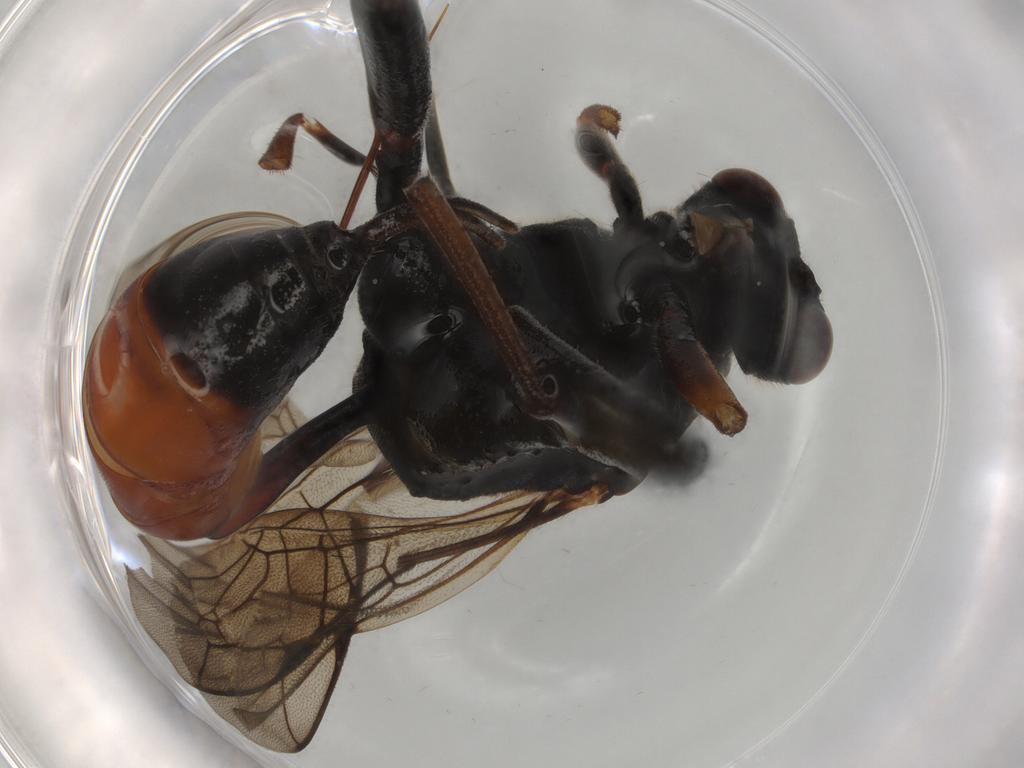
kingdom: Animalia
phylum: Arthropoda
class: Insecta
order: Hymenoptera
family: Ichneumonidae
